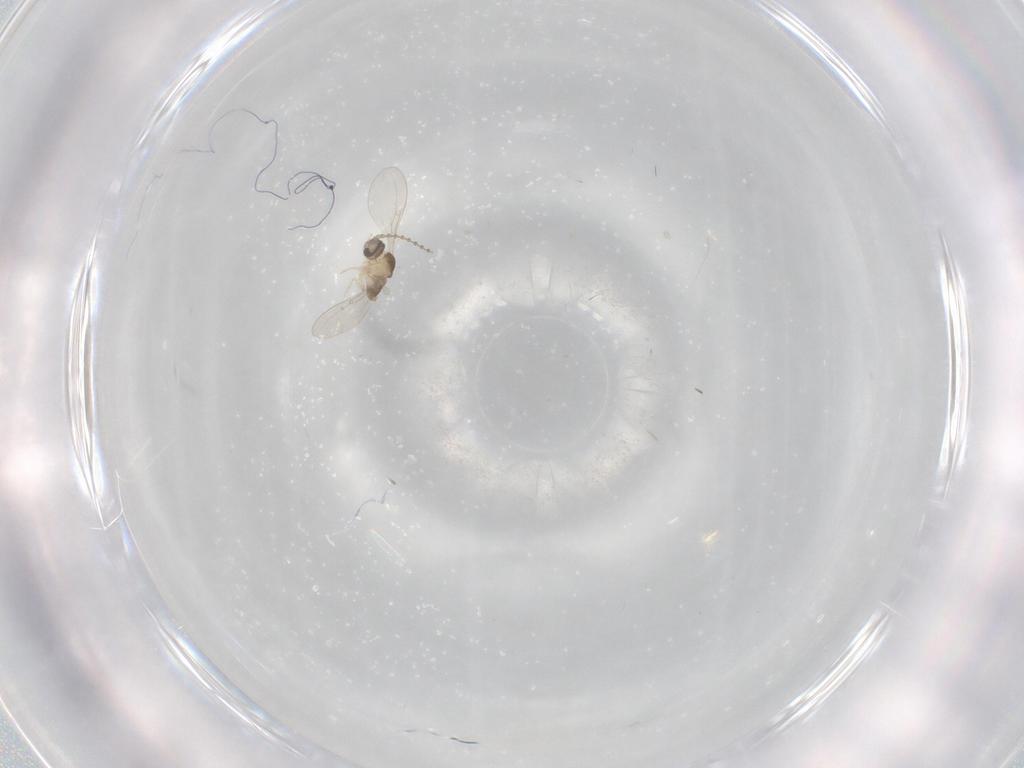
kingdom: Animalia
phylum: Arthropoda
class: Insecta
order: Diptera
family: Cecidomyiidae
